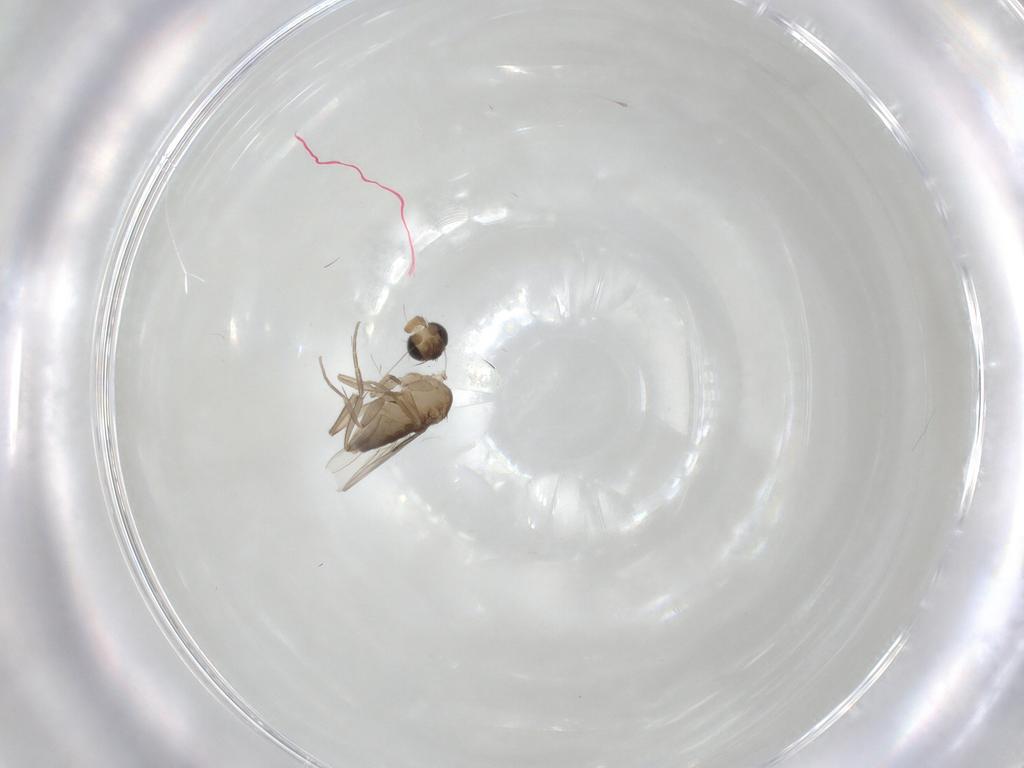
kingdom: Animalia
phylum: Arthropoda
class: Insecta
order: Diptera
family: Phoridae
